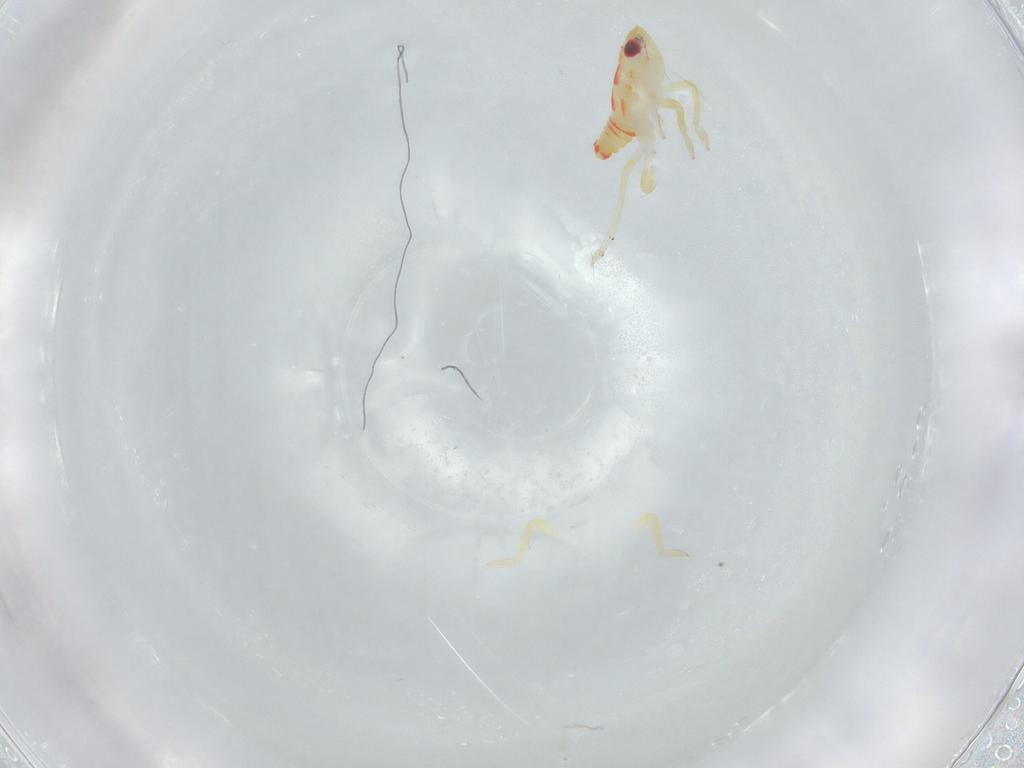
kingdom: Animalia
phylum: Arthropoda
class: Insecta
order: Hemiptera
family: Tropiduchidae
